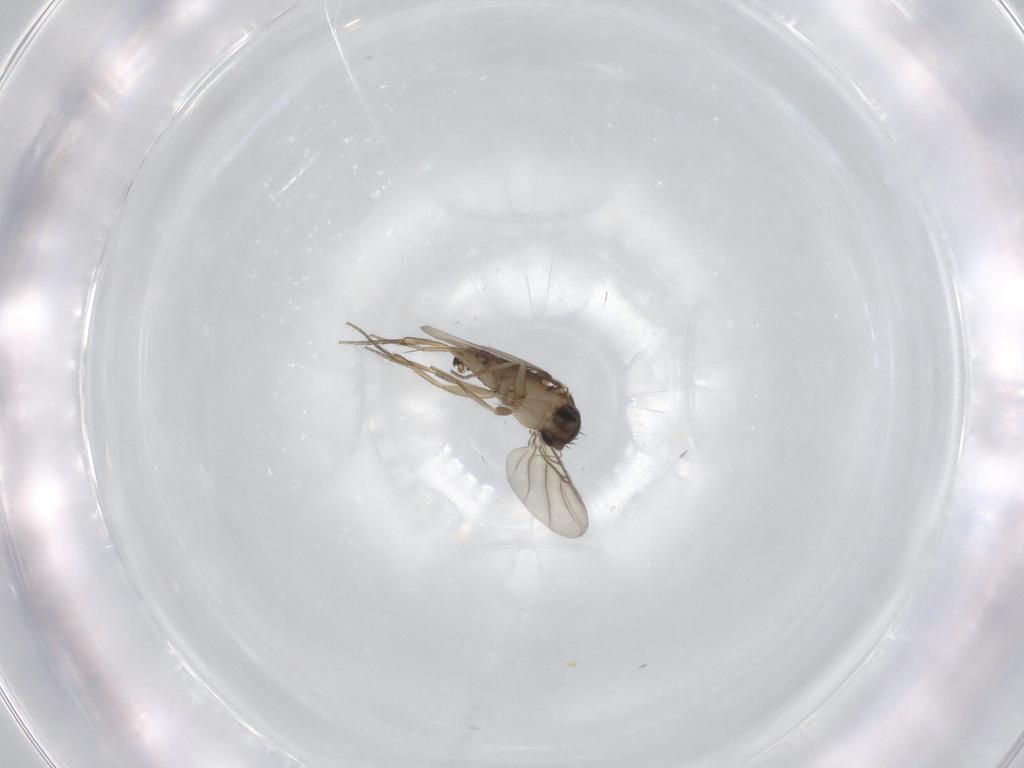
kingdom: Animalia
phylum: Arthropoda
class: Insecta
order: Diptera
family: Phoridae
